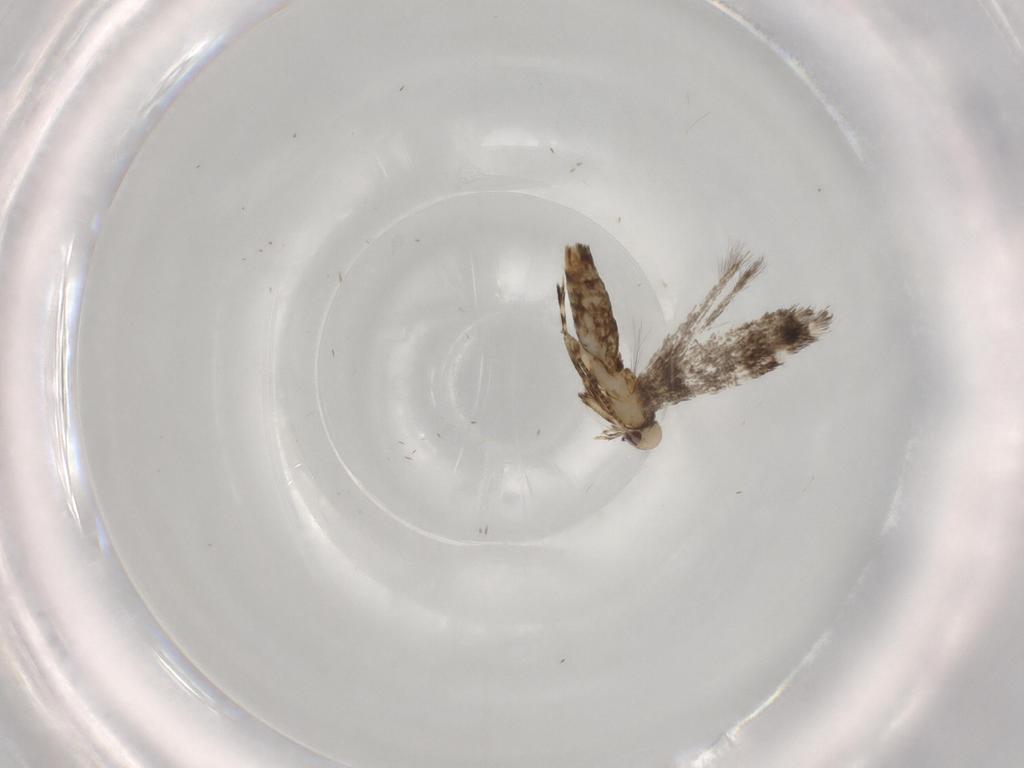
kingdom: Animalia
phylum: Arthropoda
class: Insecta
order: Lepidoptera
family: Gracillariidae
